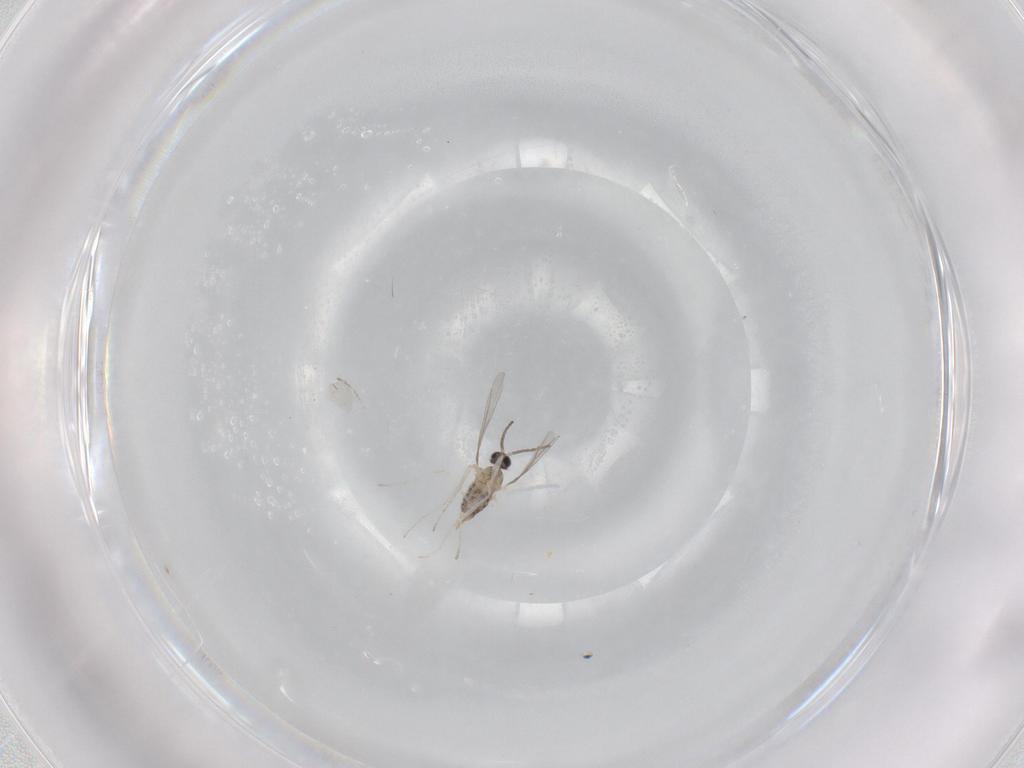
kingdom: Animalia
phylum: Arthropoda
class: Insecta
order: Diptera
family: Cecidomyiidae
